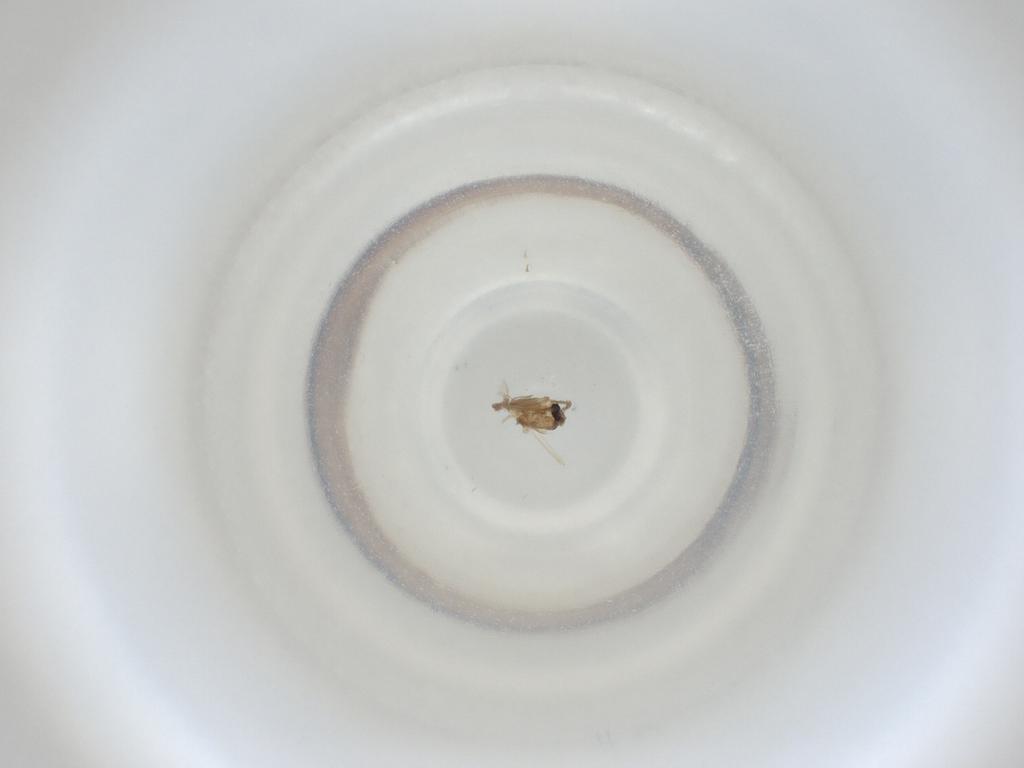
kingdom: Animalia
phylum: Arthropoda
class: Insecta
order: Diptera
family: Cecidomyiidae
